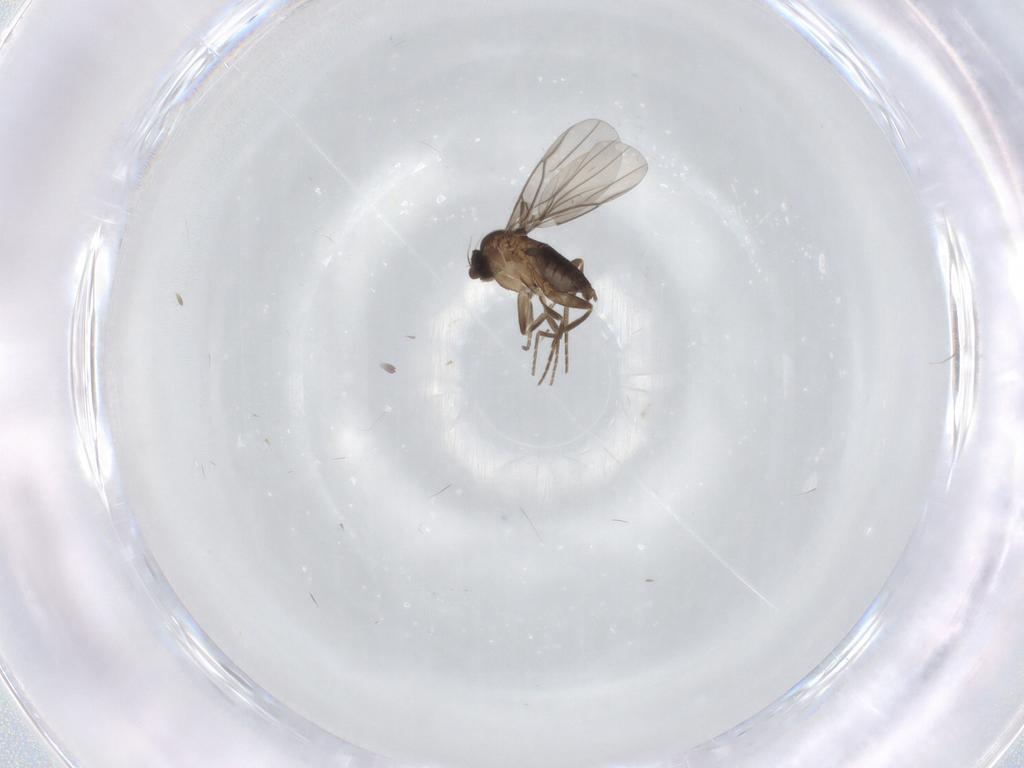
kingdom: Animalia
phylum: Arthropoda
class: Insecta
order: Diptera
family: Phoridae
